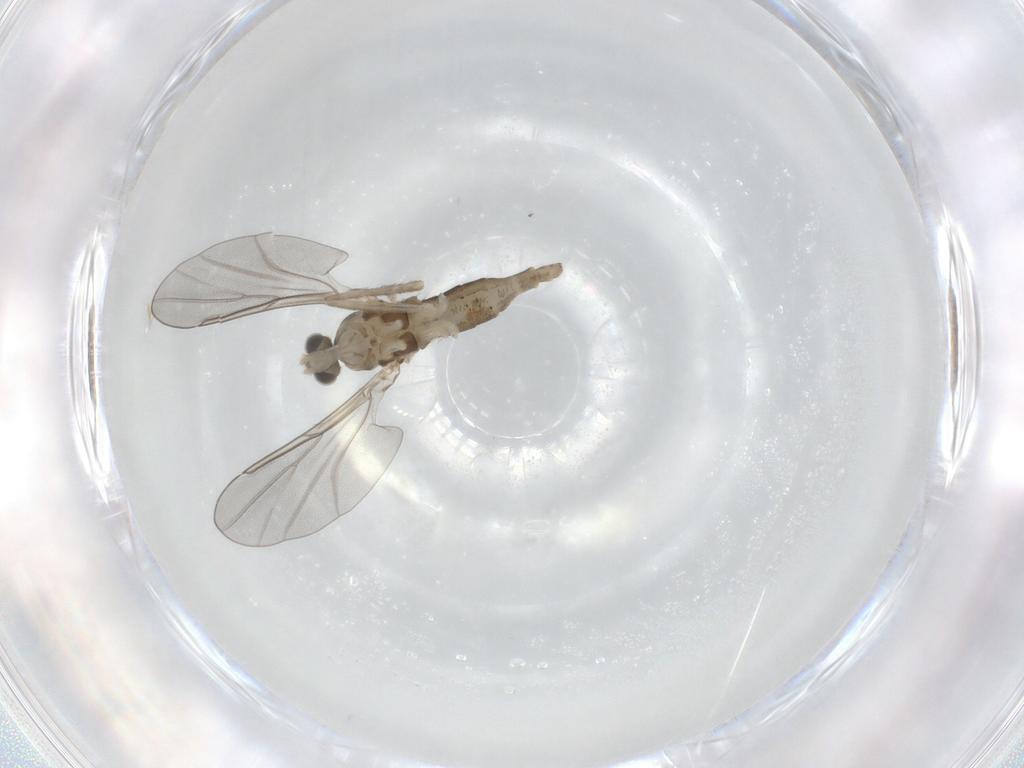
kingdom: Animalia
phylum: Arthropoda
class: Insecta
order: Diptera
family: Cecidomyiidae
